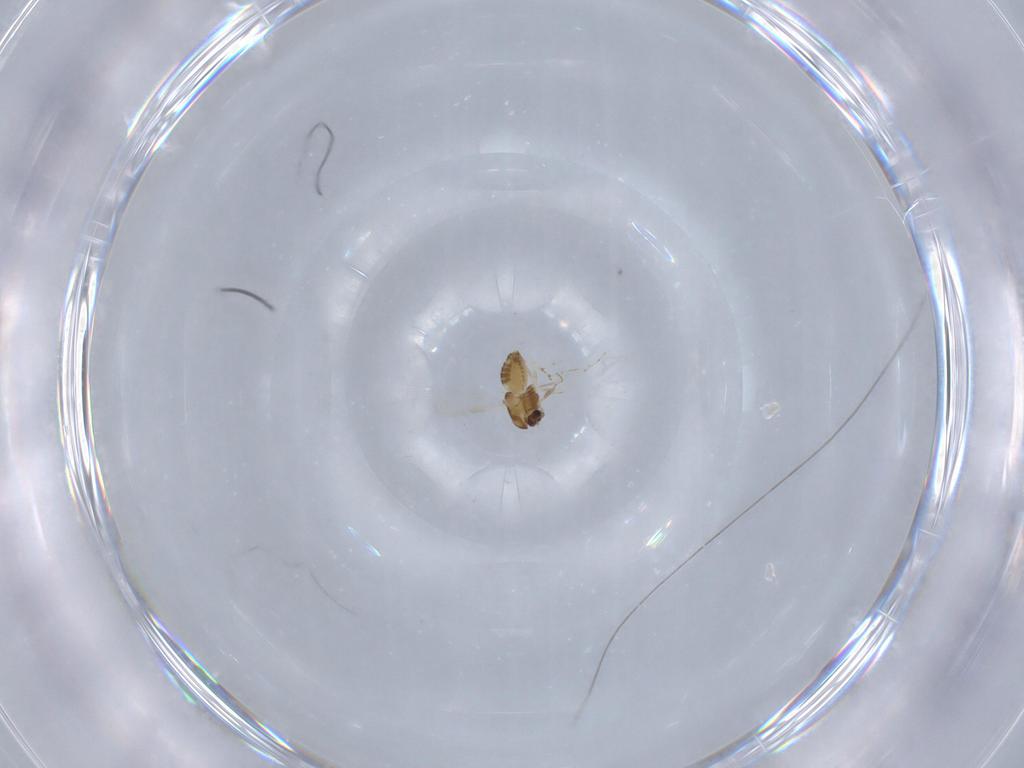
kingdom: Animalia
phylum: Arthropoda
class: Insecta
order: Diptera
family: Chironomidae
